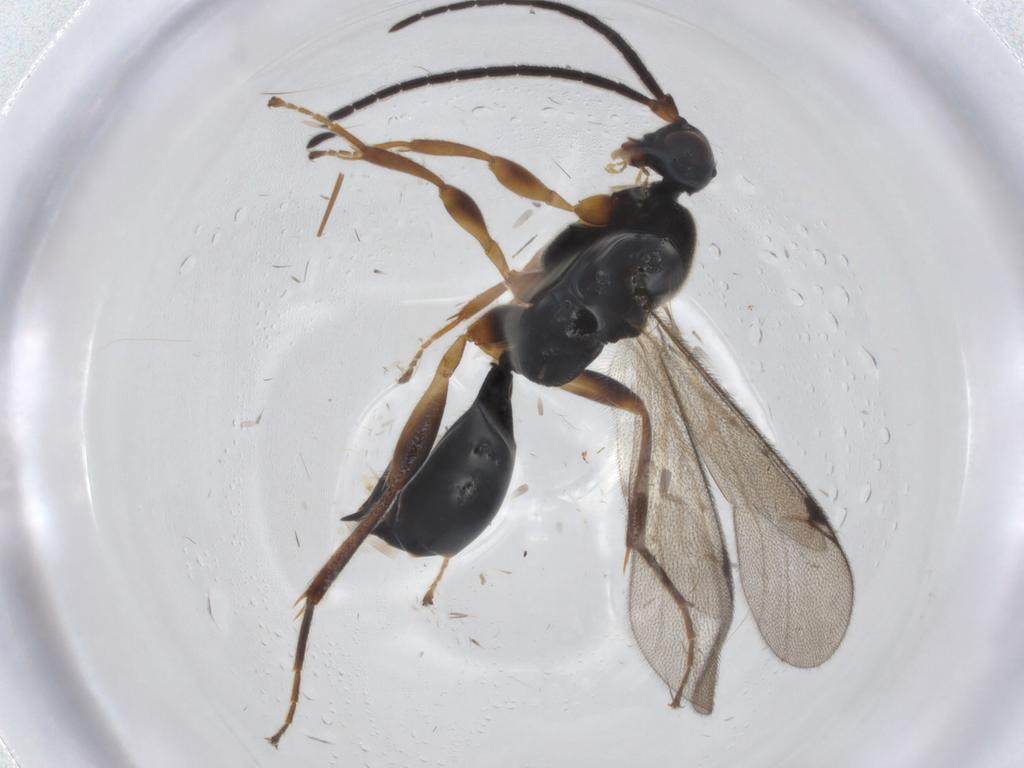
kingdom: Animalia
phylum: Arthropoda
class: Insecta
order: Hymenoptera
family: Proctotrupidae
